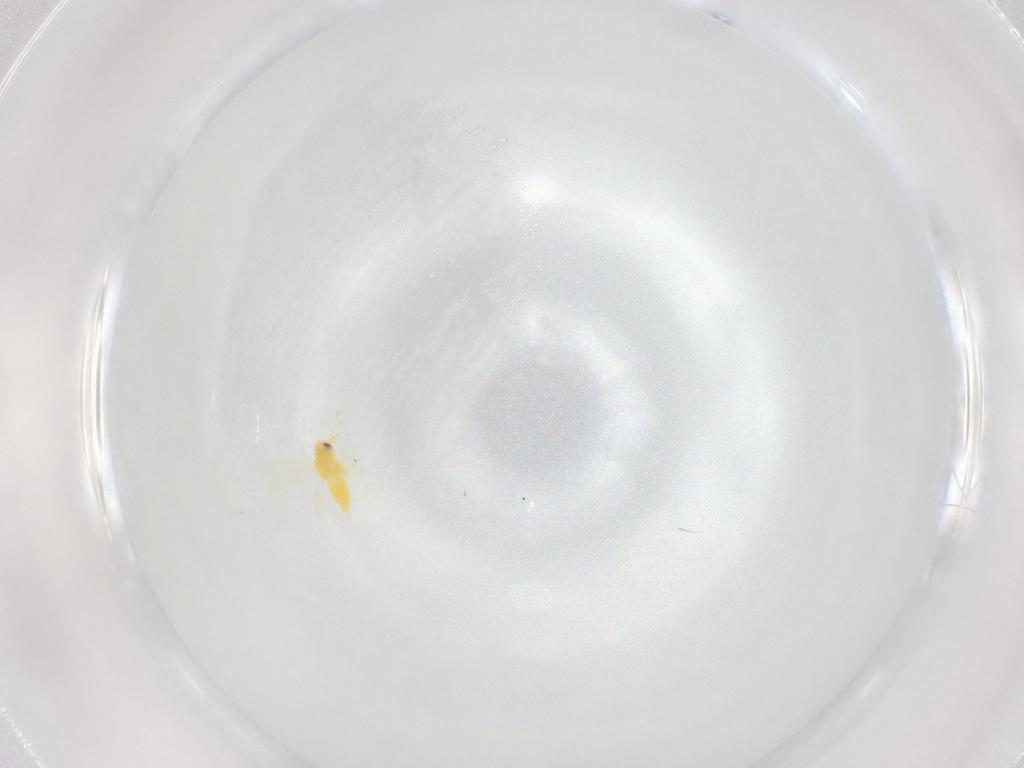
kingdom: Animalia
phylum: Arthropoda
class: Insecta
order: Hemiptera
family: Aleyrodidae
